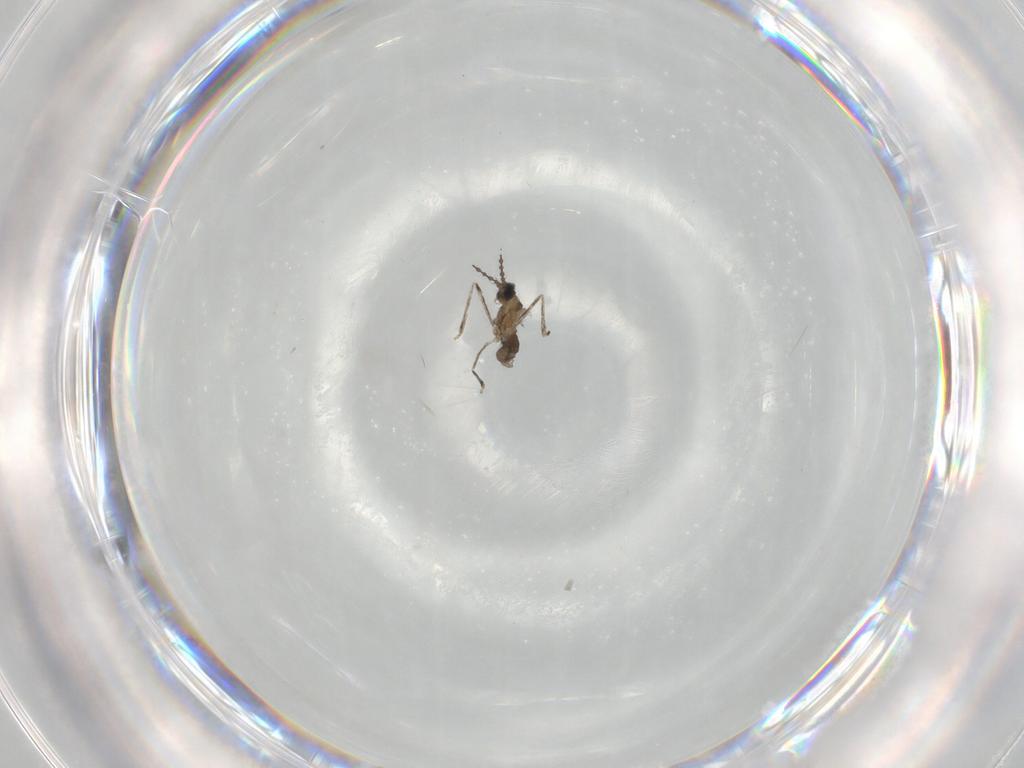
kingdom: Animalia
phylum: Arthropoda
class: Insecta
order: Diptera
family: Cecidomyiidae
